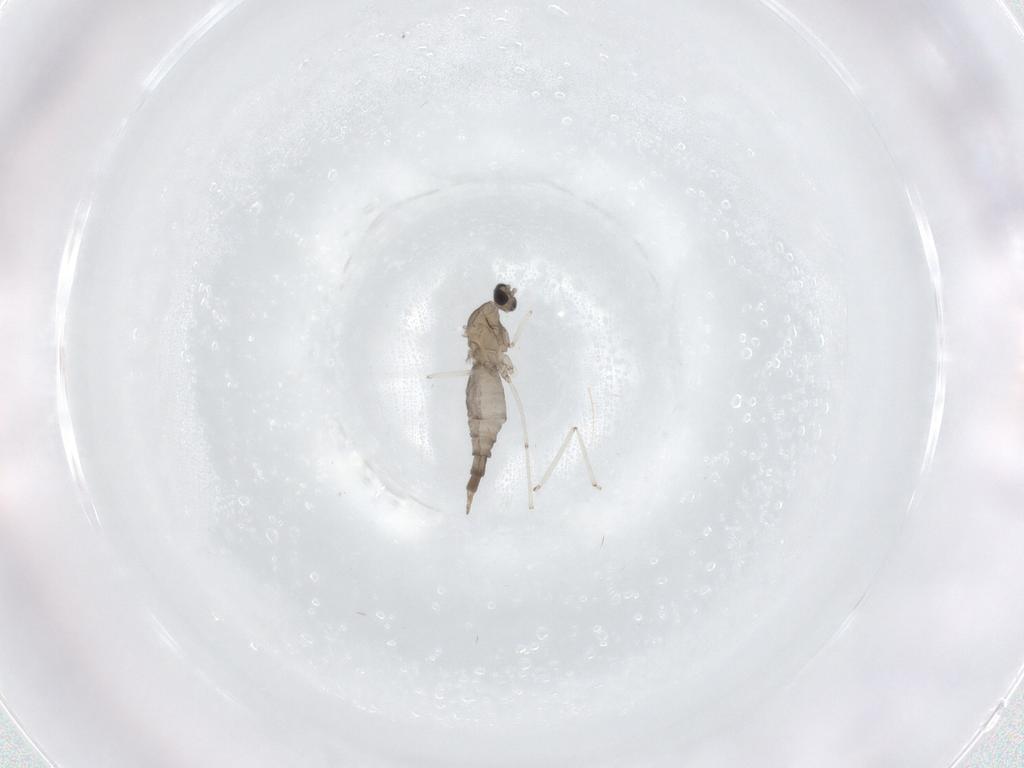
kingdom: Animalia
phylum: Arthropoda
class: Insecta
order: Diptera
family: Cecidomyiidae
